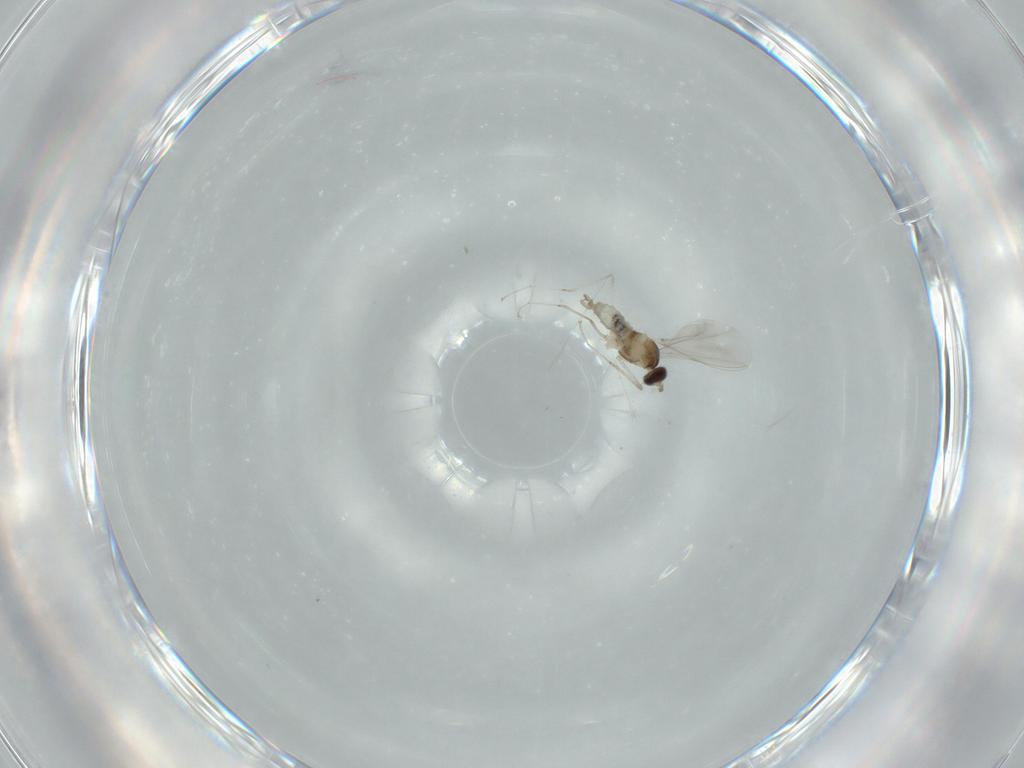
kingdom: Animalia
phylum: Arthropoda
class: Insecta
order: Diptera
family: Cecidomyiidae
